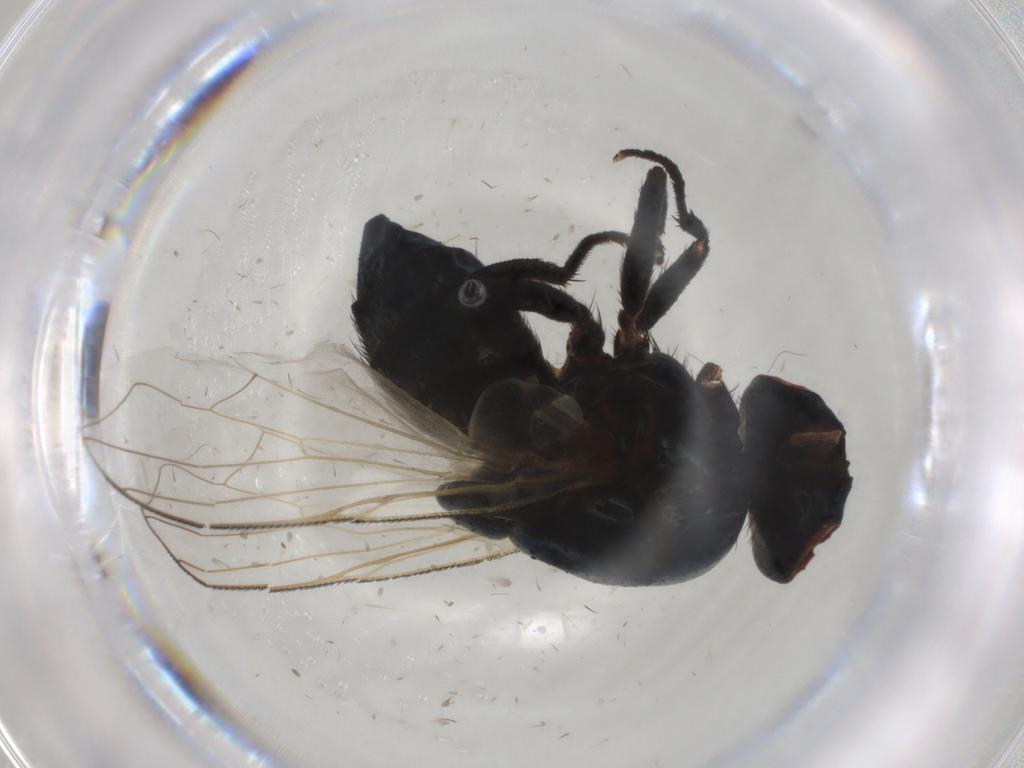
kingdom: Animalia
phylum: Arthropoda
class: Insecta
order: Diptera
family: Muscidae
